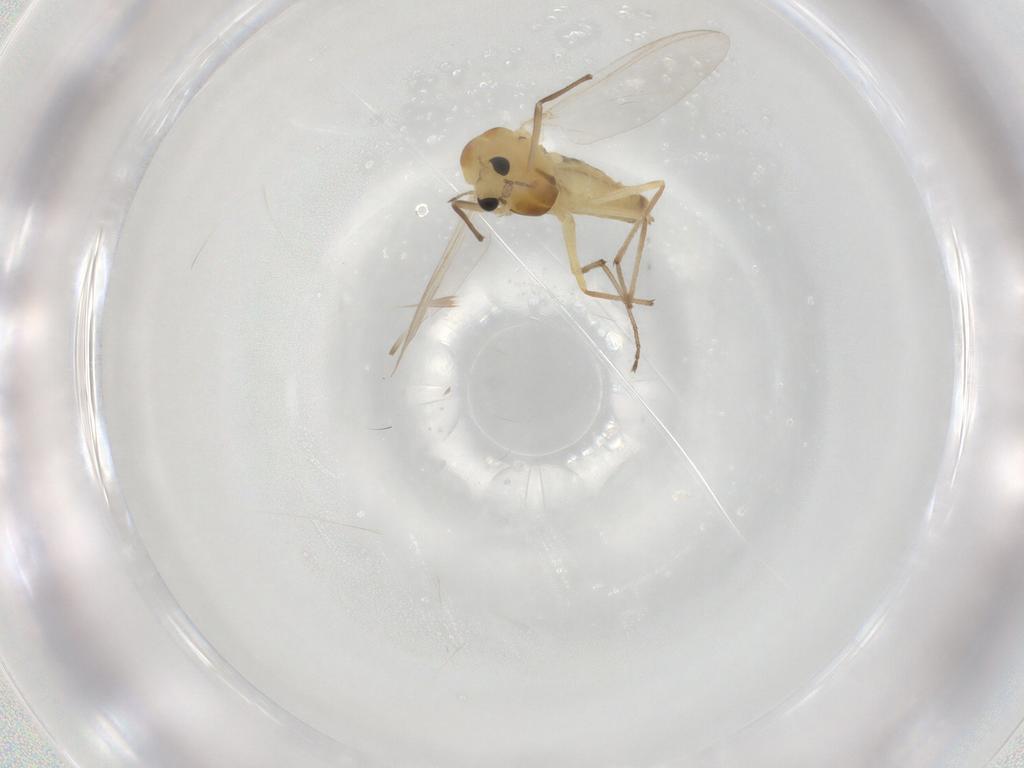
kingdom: Animalia
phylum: Arthropoda
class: Insecta
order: Diptera
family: Psychodidae
